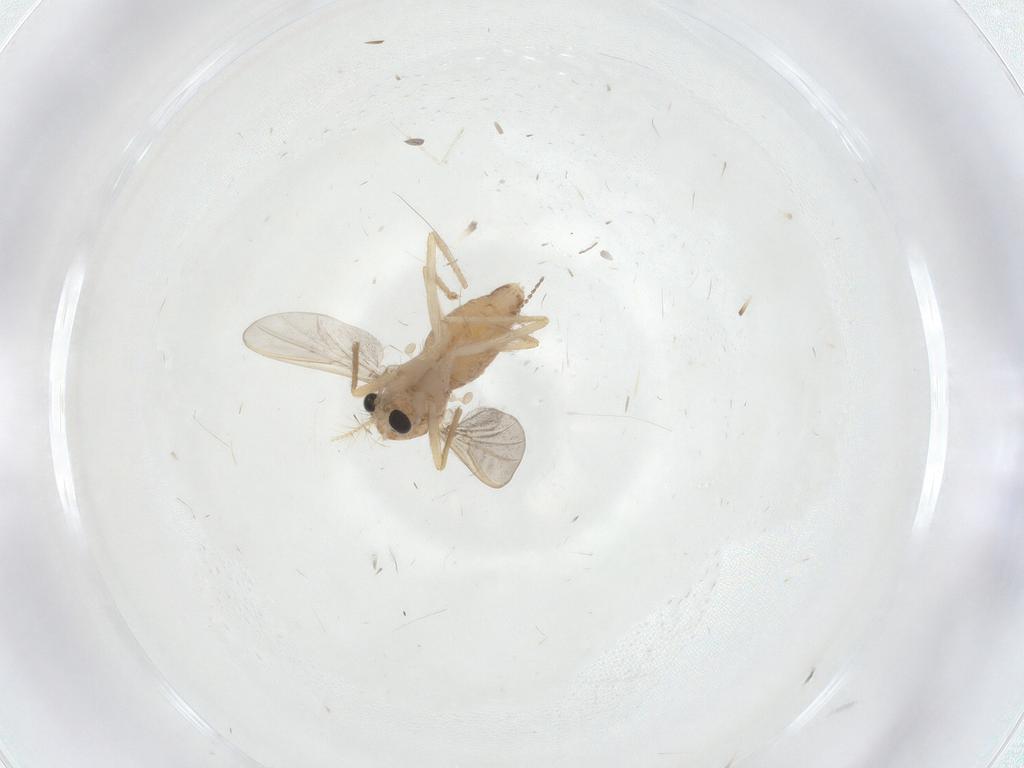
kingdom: Animalia
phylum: Arthropoda
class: Insecta
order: Diptera
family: Chironomidae
